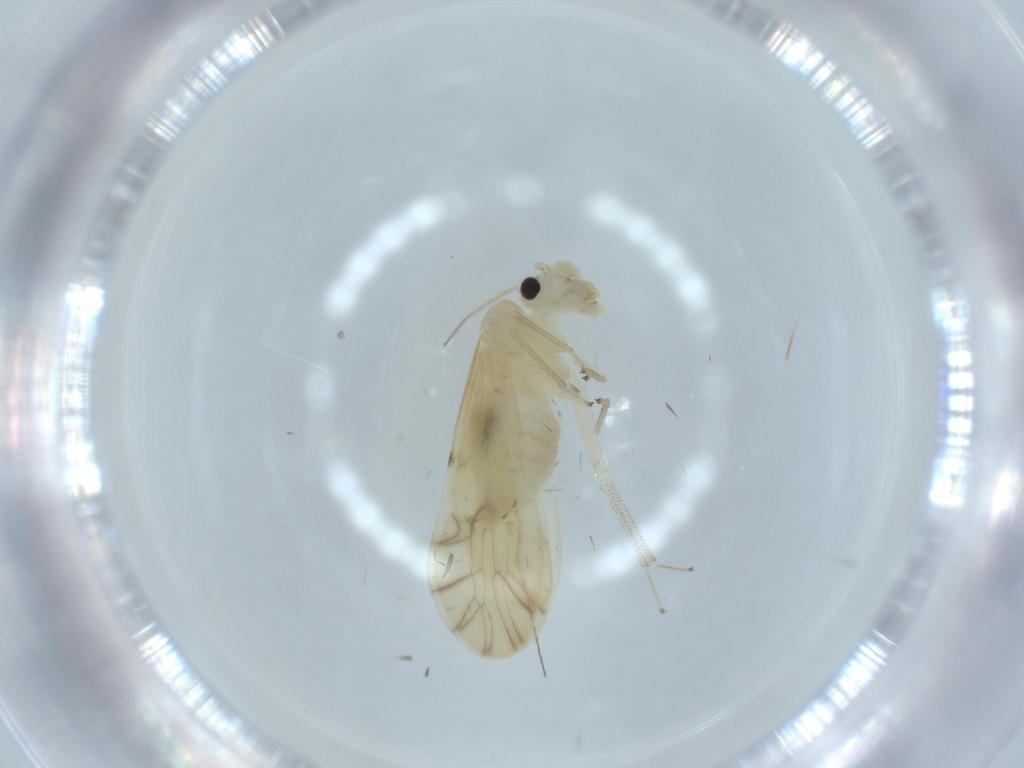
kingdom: Animalia
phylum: Arthropoda
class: Insecta
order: Psocodea
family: Caeciliusidae
